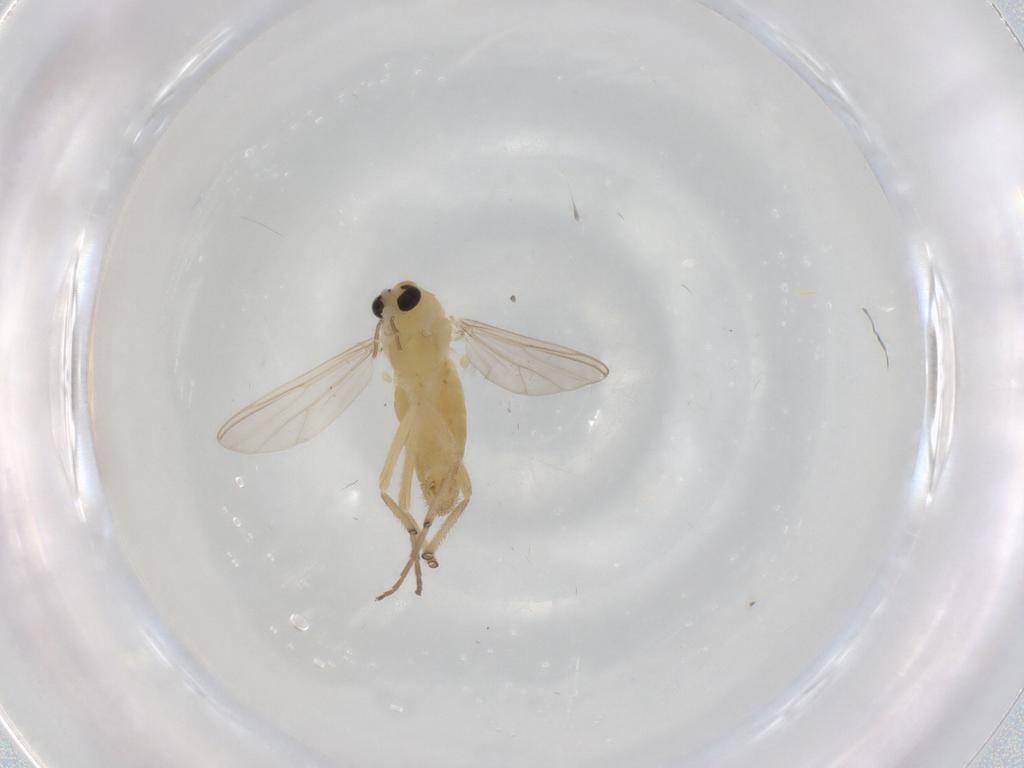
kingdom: Animalia
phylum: Arthropoda
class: Insecta
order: Diptera
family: Chironomidae
